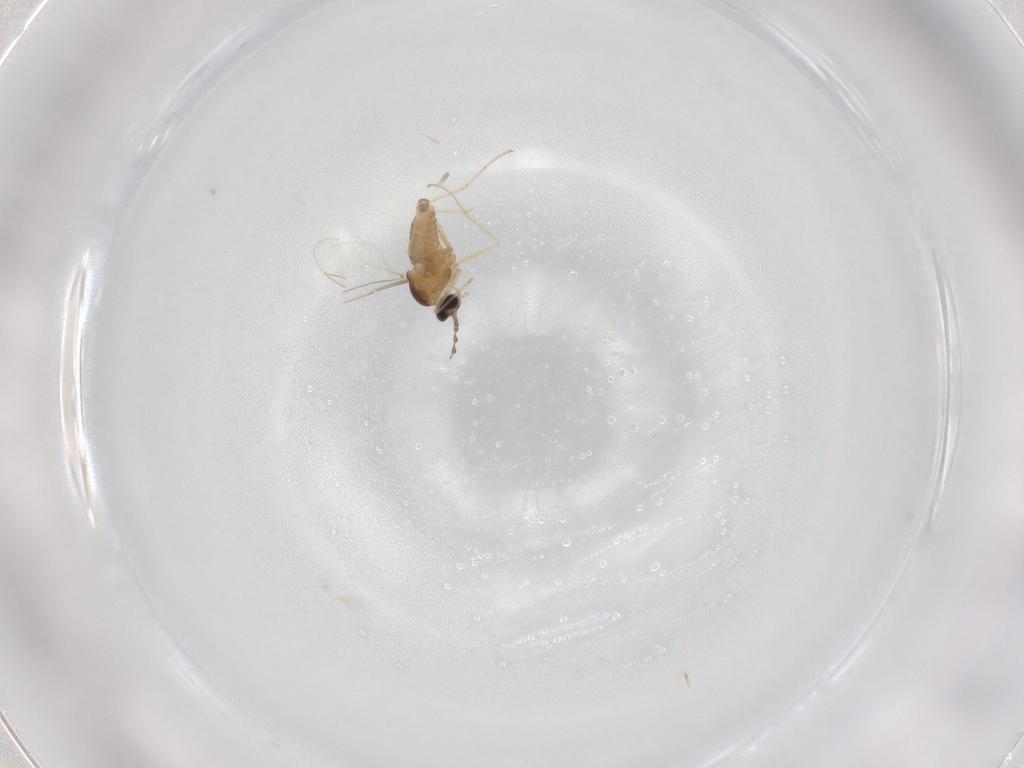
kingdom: Animalia
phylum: Arthropoda
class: Insecta
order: Diptera
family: Cecidomyiidae
